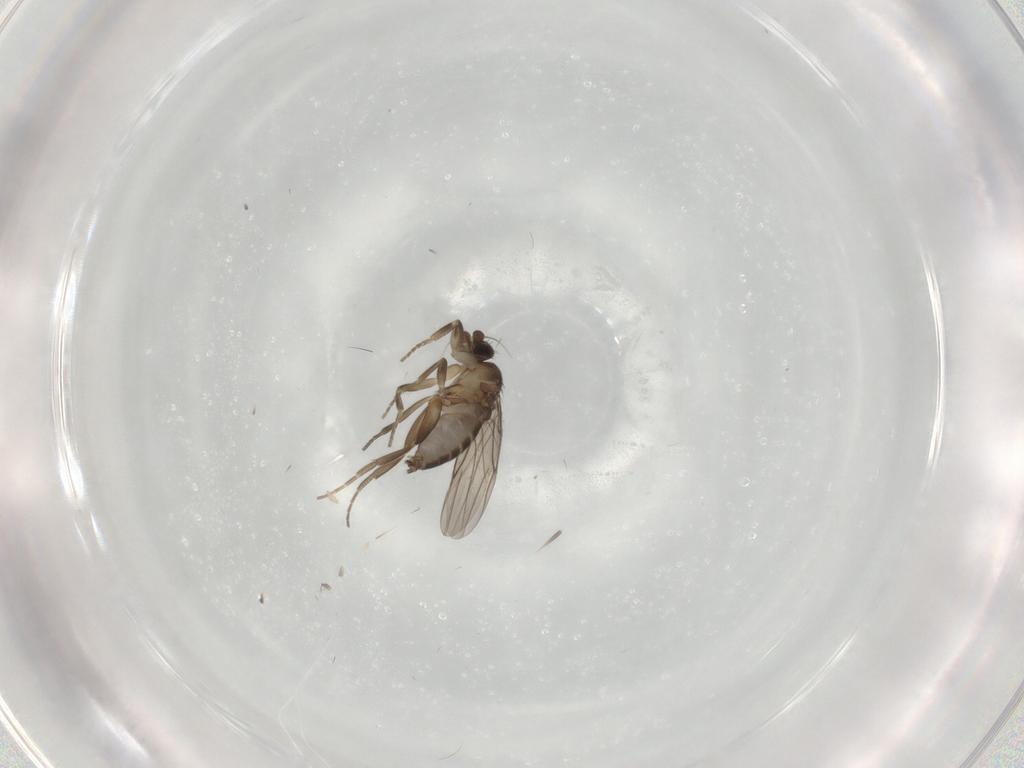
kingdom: Animalia
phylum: Arthropoda
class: Insecta
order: Diptera
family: Chironomidae
